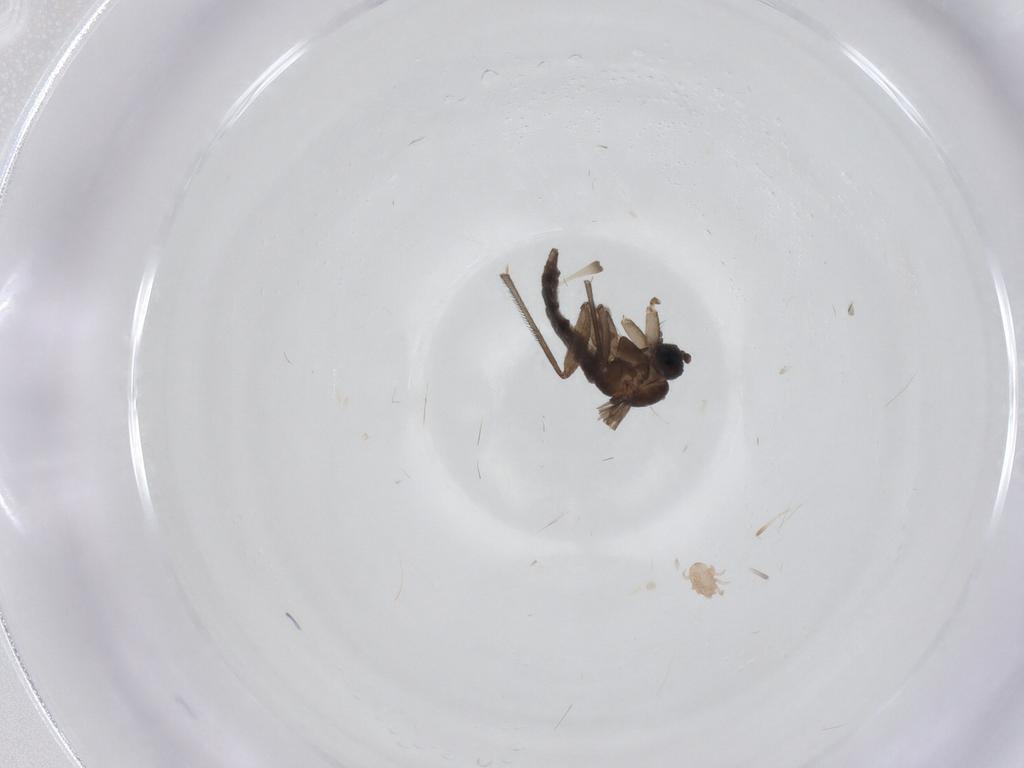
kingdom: Animalia
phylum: Arthropoda
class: Insecta
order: Diptera
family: Sciaridae
